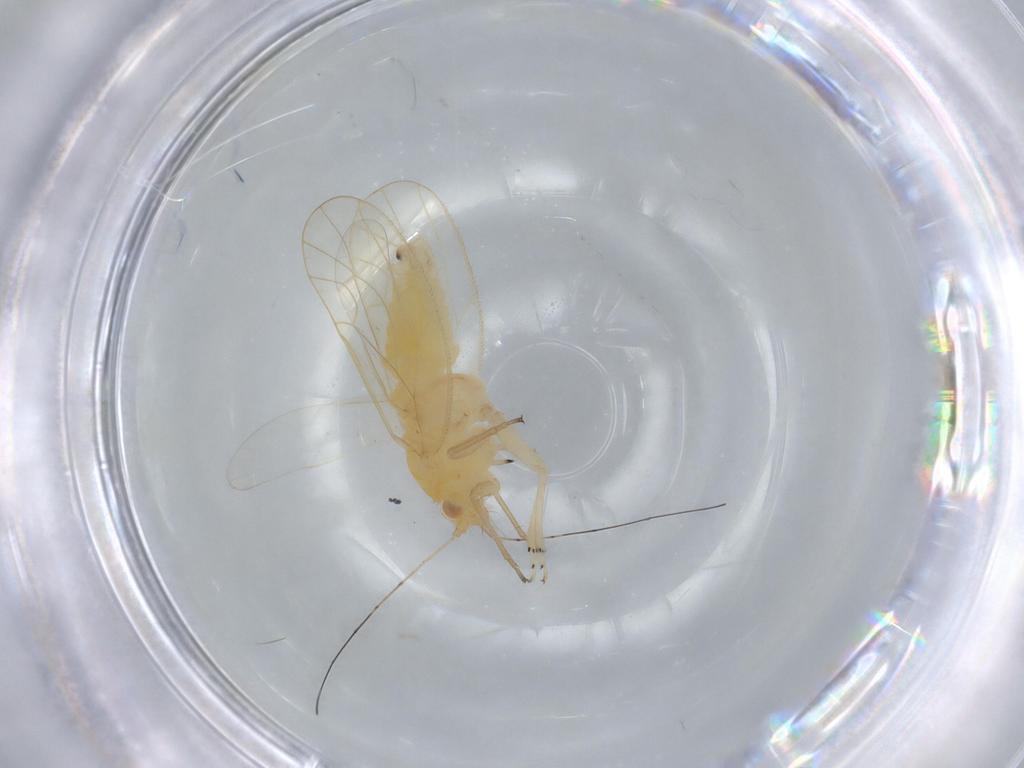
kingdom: Animalia
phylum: Arthropoda
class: Insecta
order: Hemiptera
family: Psyllidae
